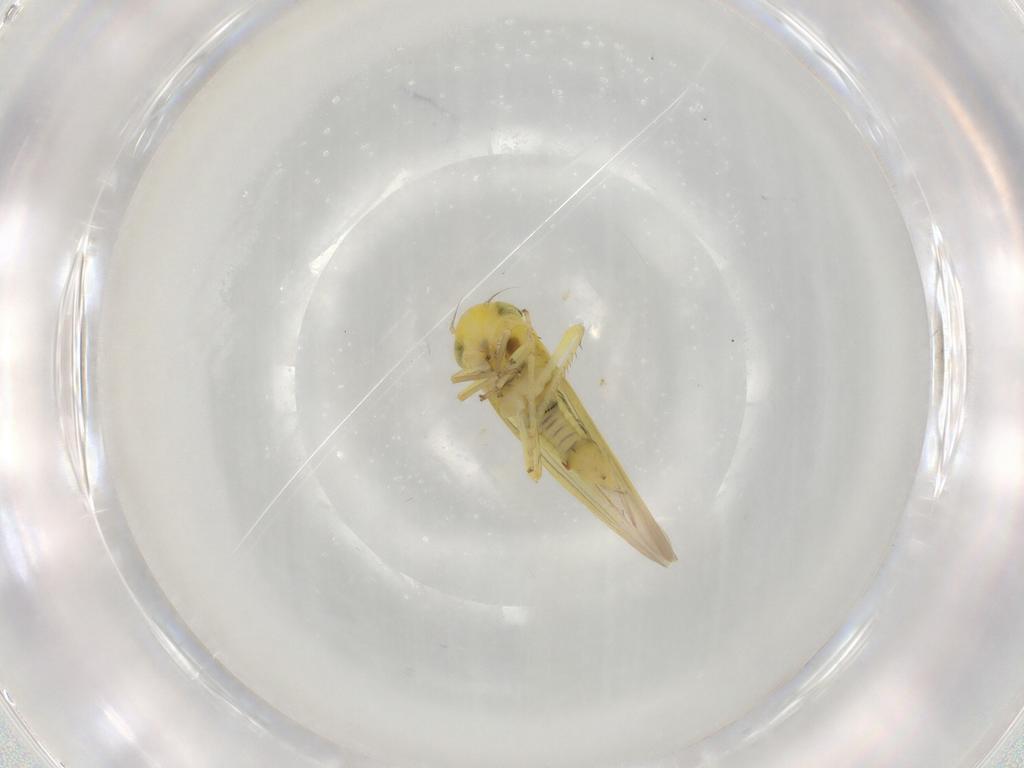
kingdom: Animalia
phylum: Arthropoda
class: Insecta
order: Hemiptera
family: Cicadellidae
